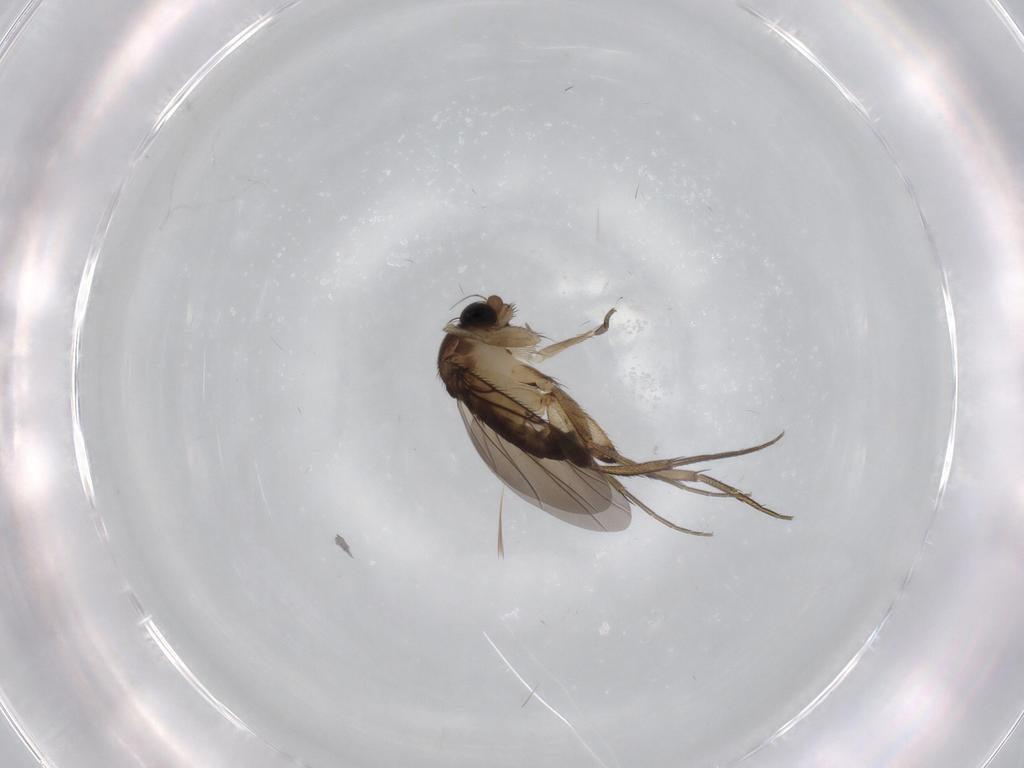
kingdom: Animalia
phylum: Arthropoda
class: Insecta
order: Diptera
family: Limoniidae
